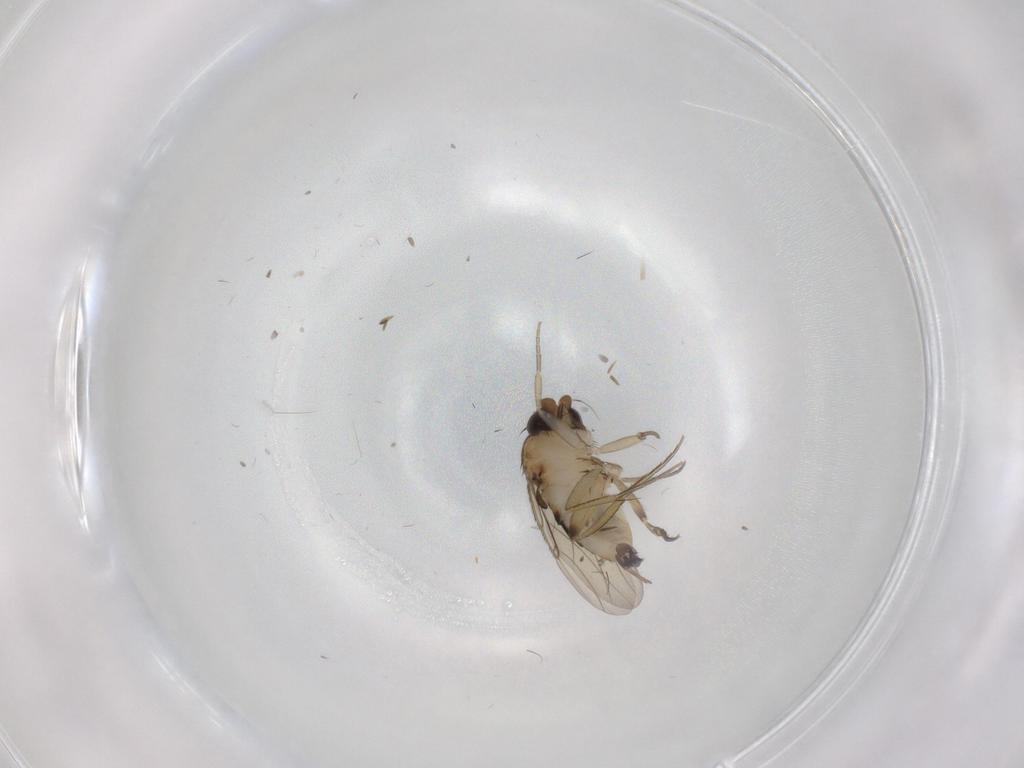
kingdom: Animalia
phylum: Arthropoda
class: Insecta
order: Diptera
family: Phoridae
